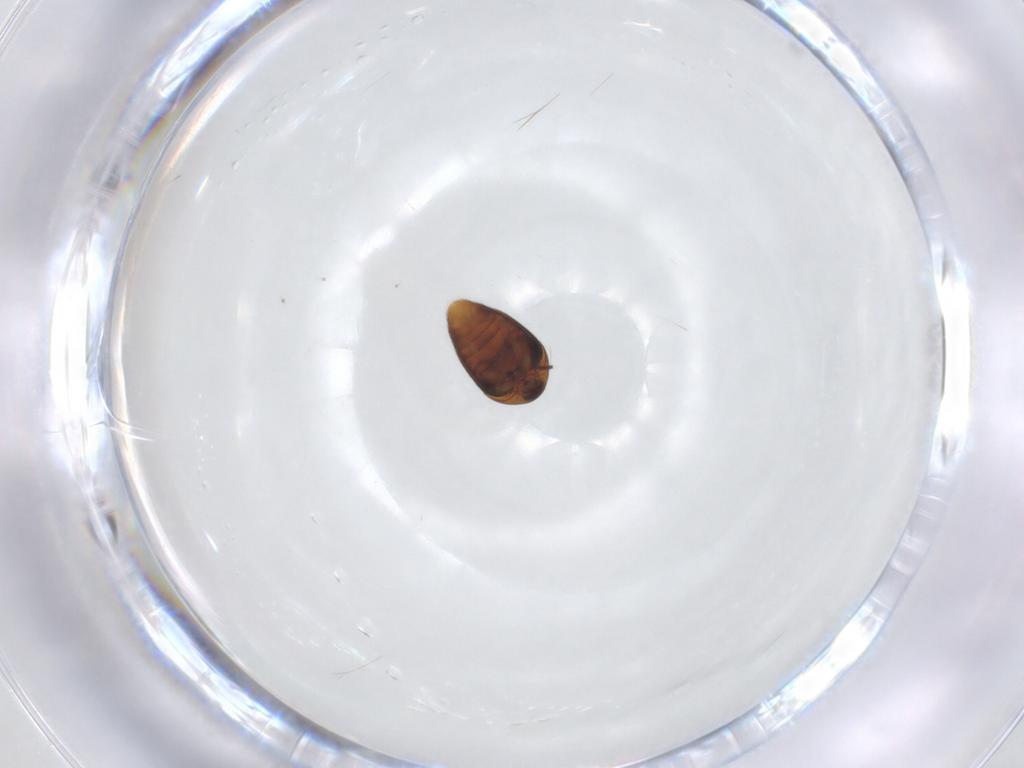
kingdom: Animalia
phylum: Arthropoda
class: Insecta
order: Coleoptera
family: Corylophidae
